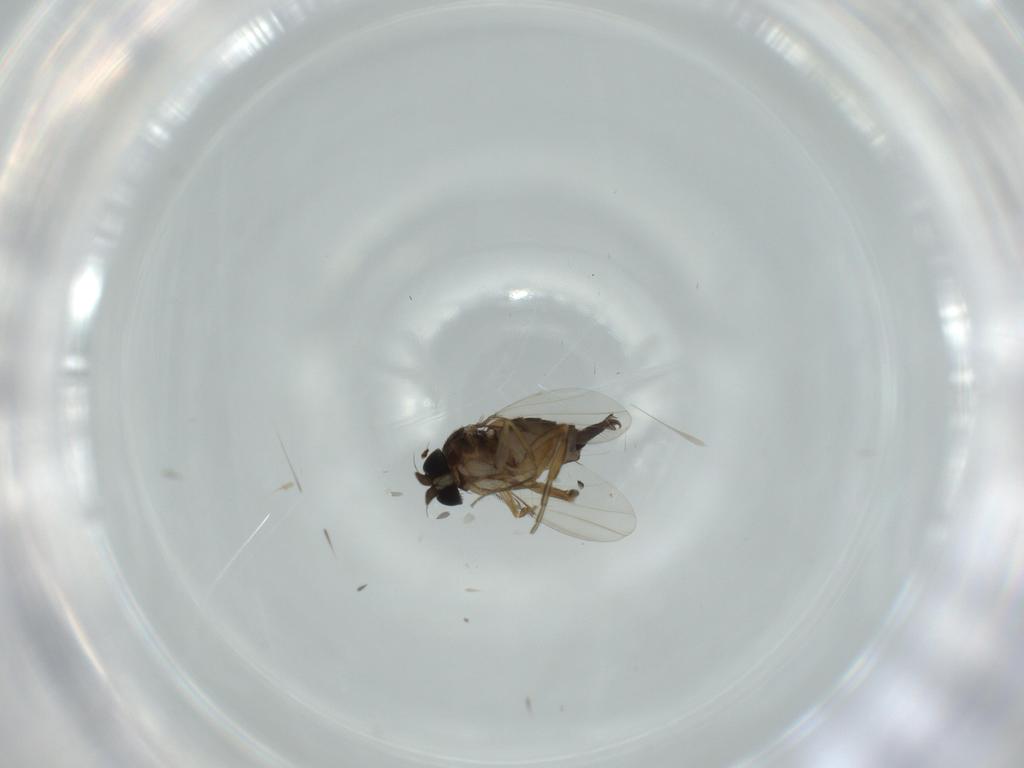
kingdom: Animalia
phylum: Arthropoda
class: Insecta
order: Diptera
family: Phoridae
